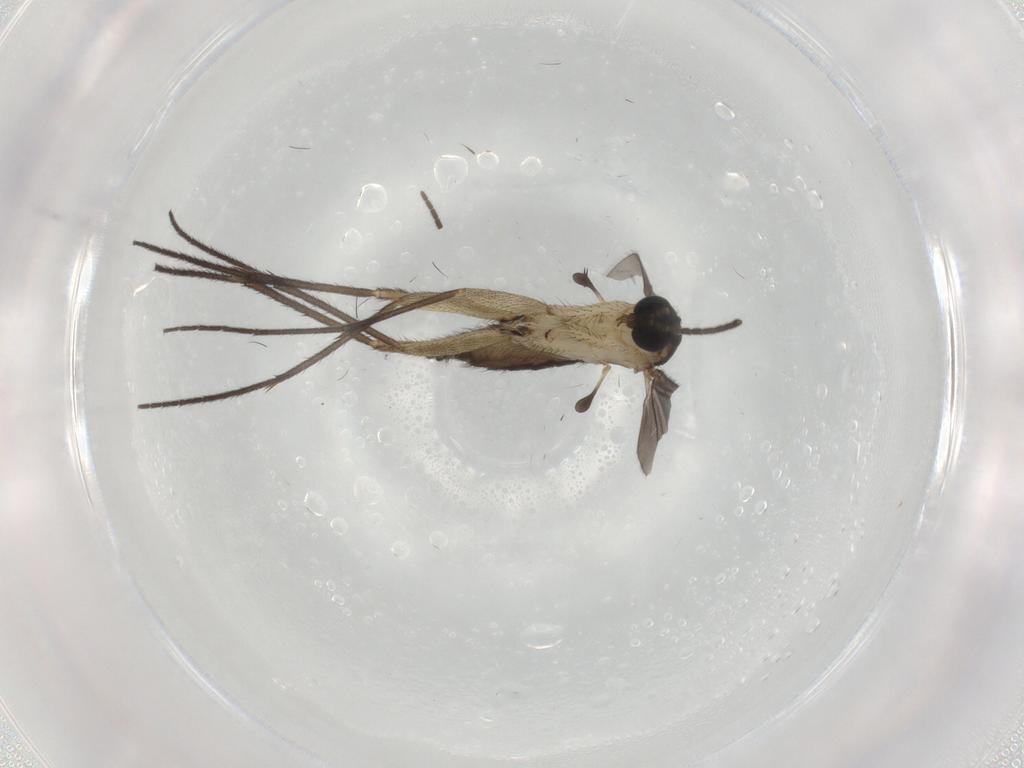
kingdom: Animalia
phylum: Arthropoda
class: Insecta
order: Diptera
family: Sciaridae
